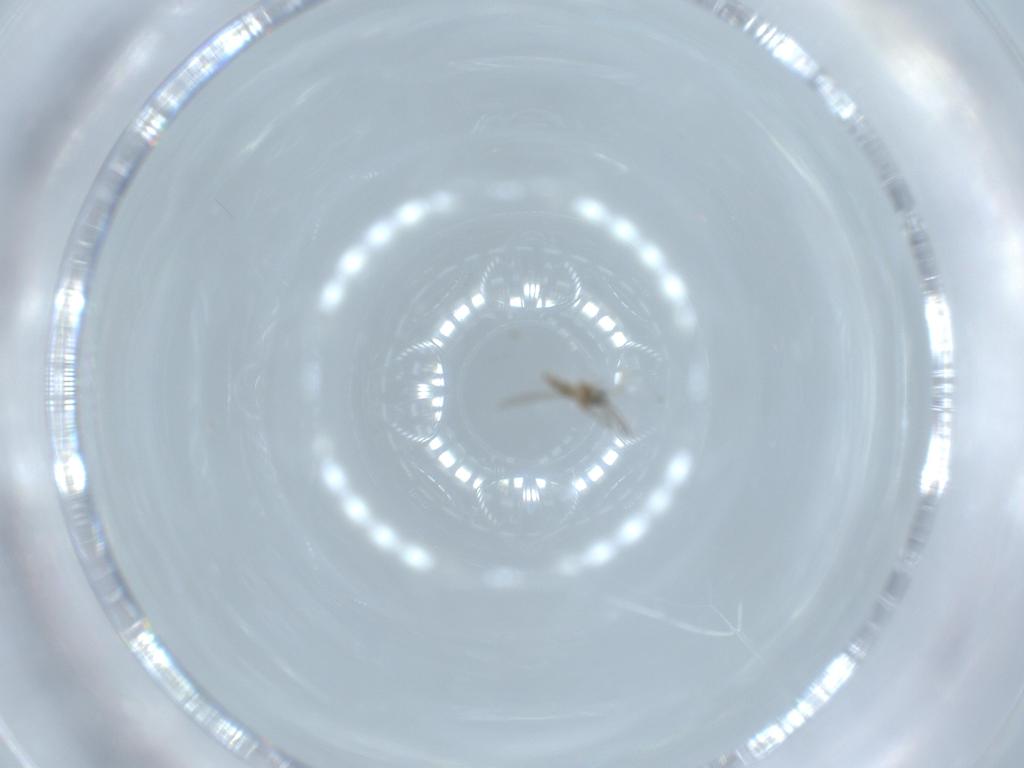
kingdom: Animalia
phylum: Arthropoda
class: Insecta
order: Diptera
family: Cecidomyiidae
